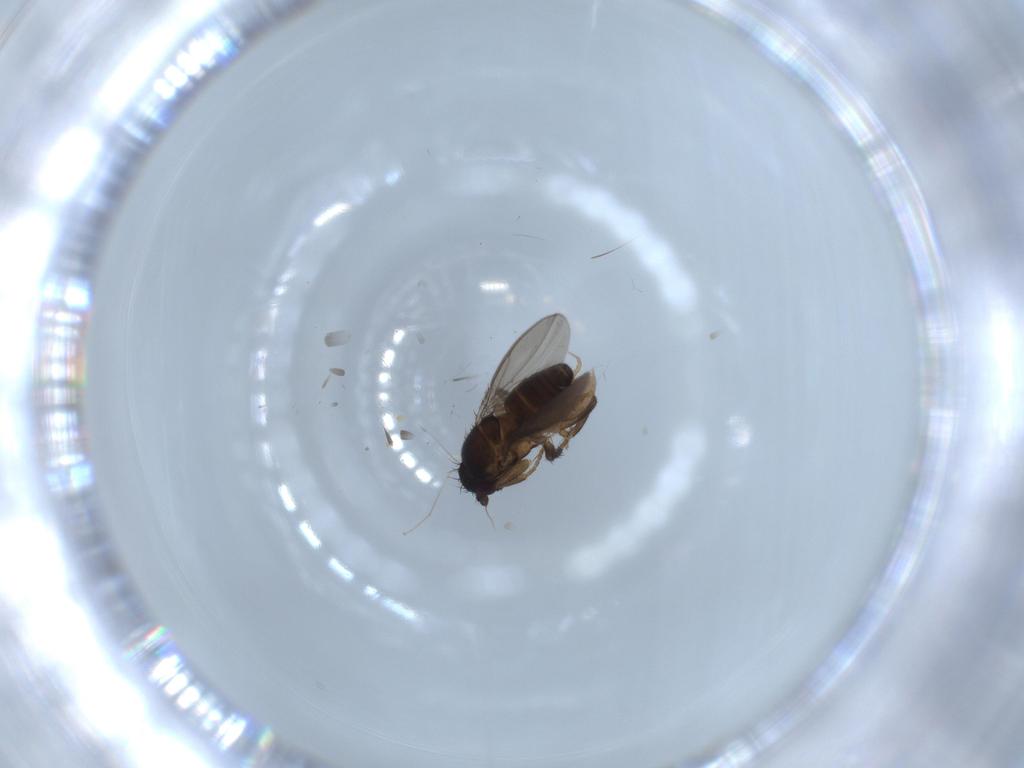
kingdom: Animalia
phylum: Arthropoda
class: Insecta
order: Diptera
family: Sphaeroceridae
